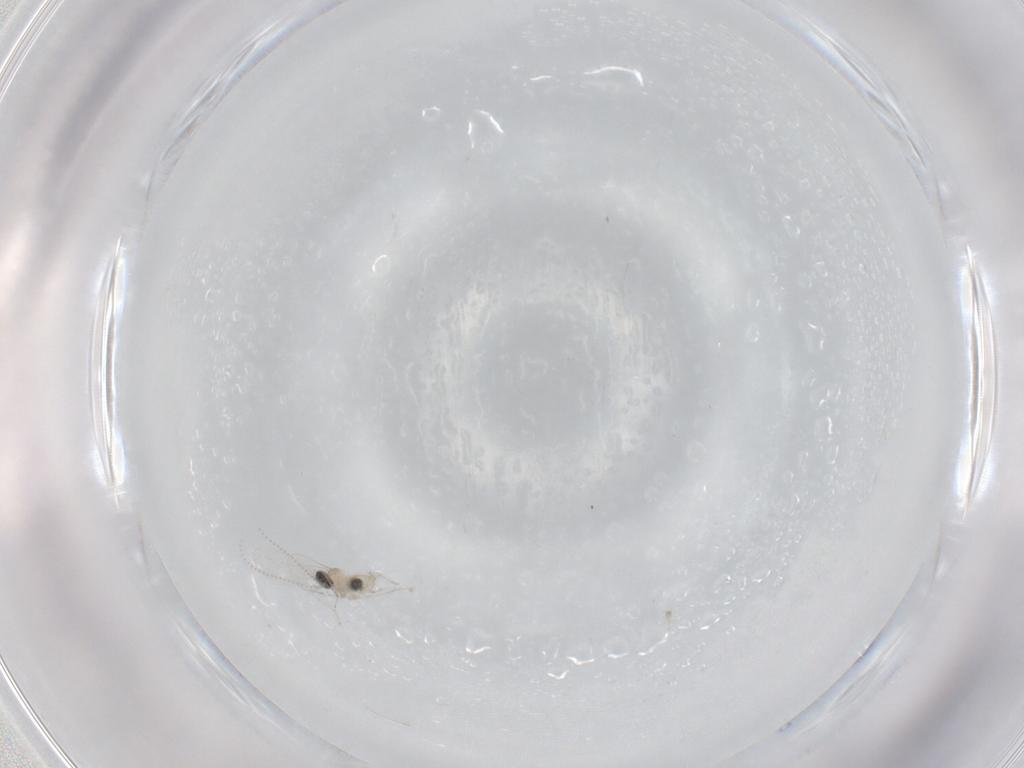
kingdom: Animalia
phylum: Arthropoda
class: Insecta
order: Diptera
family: Cecidomyiidae
